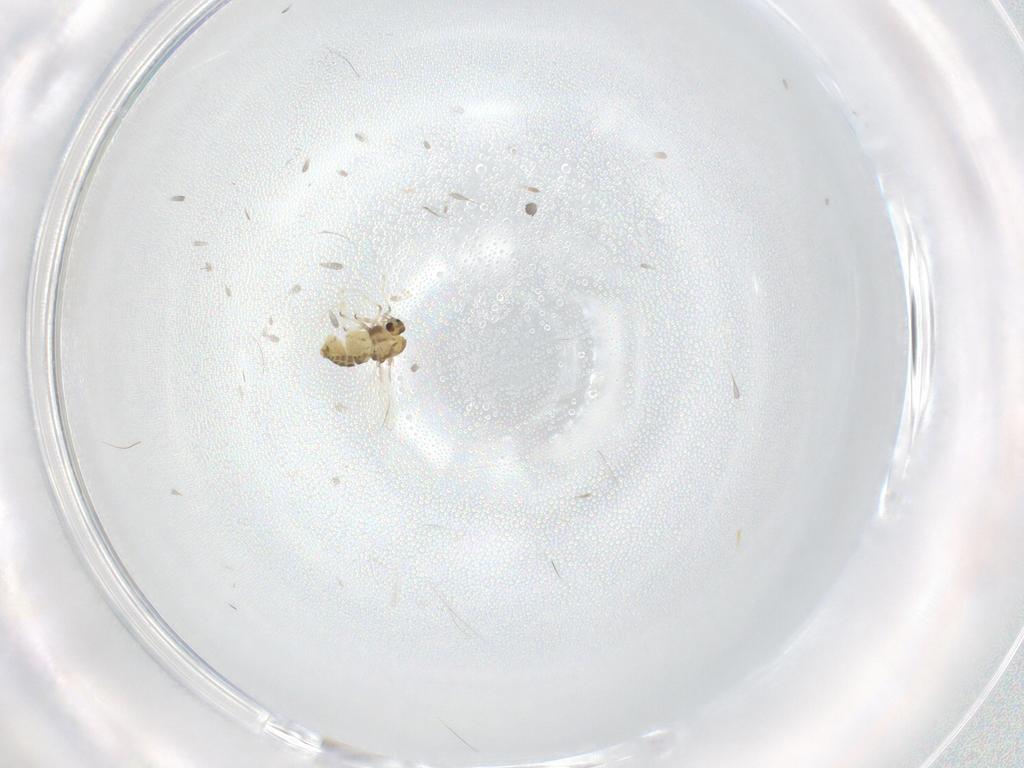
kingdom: Animalia
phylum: Arthropoda
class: Insecta
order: Diptera
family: Chironomidae
